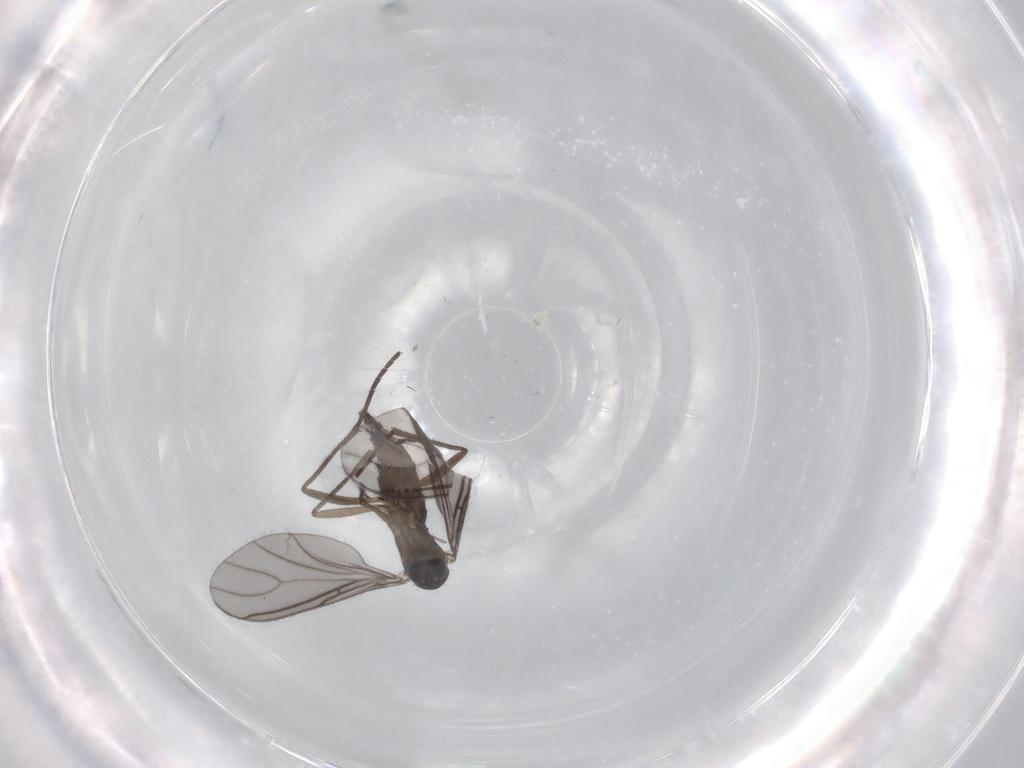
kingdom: Animalia
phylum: Arthropoda
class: Insecta
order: Diptera
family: Sciaridae
